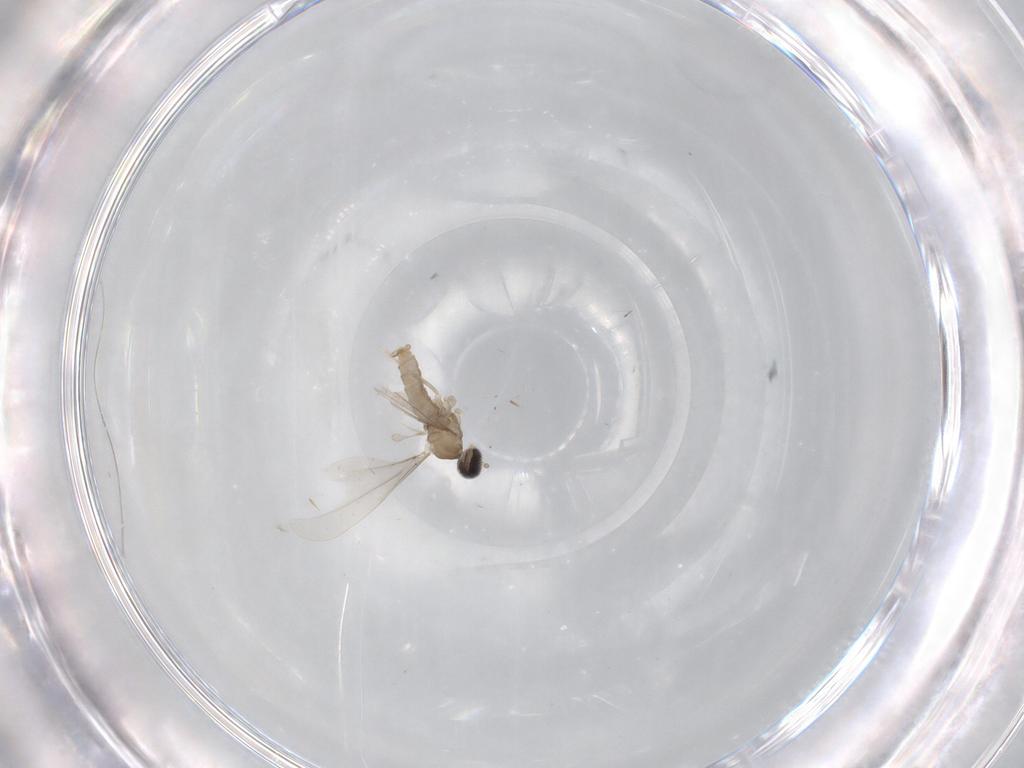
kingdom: Animalia
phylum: Arthropoda
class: Insecta
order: Diptera
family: Cecidomyiidae
